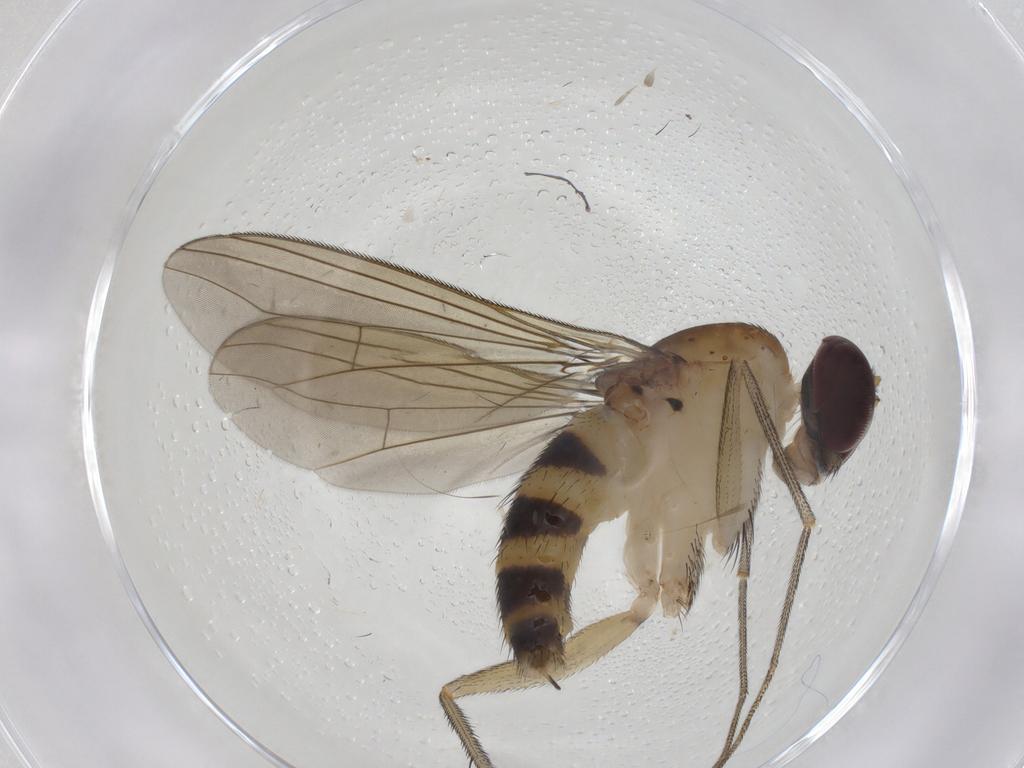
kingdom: Animalia
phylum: Arthropoda
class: Insecta
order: Diptera
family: Dolichopodidae
